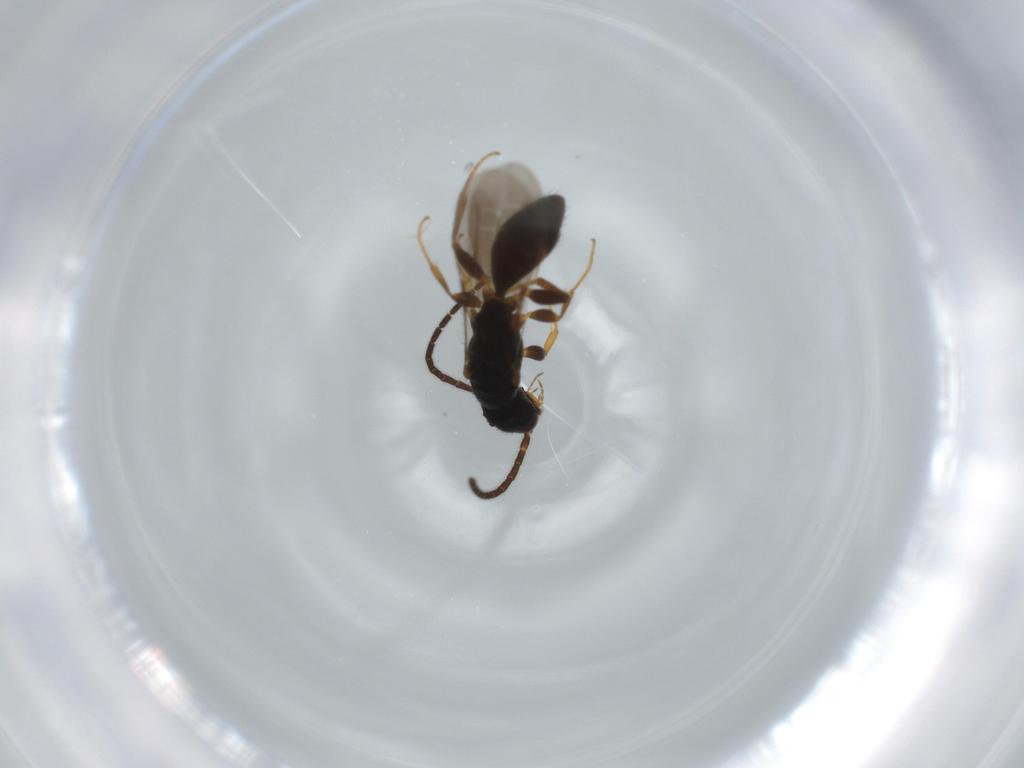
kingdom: Animalia
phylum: Arthropoda
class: Insecta
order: Hymenoptera
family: Bethylidae
